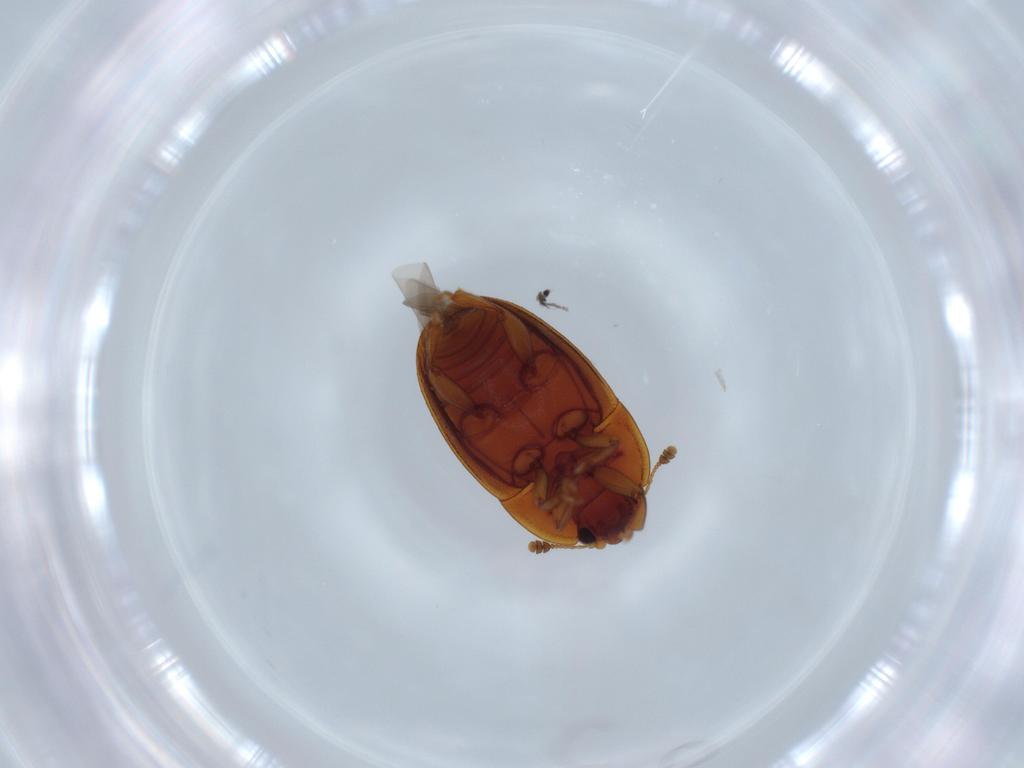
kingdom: Animalia
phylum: Arthropoda
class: Insecta
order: Coleoptera
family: Nitidulidae
